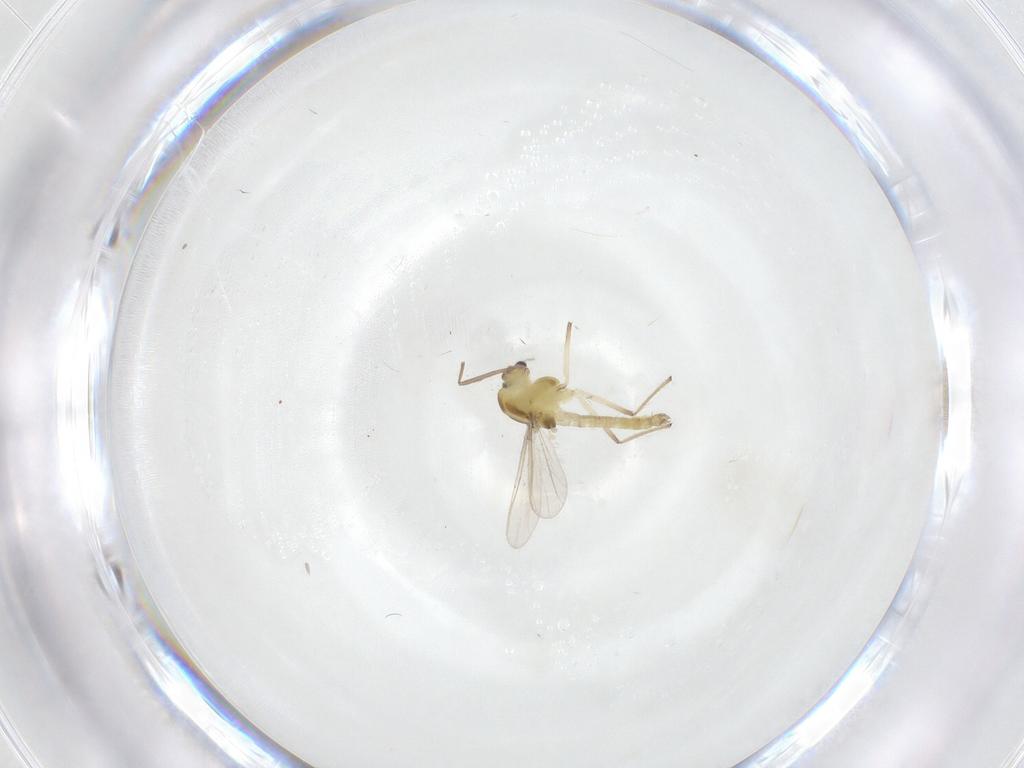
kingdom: Animalia
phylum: Arthropoda
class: Insecta
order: Diptera
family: Chironomidae
